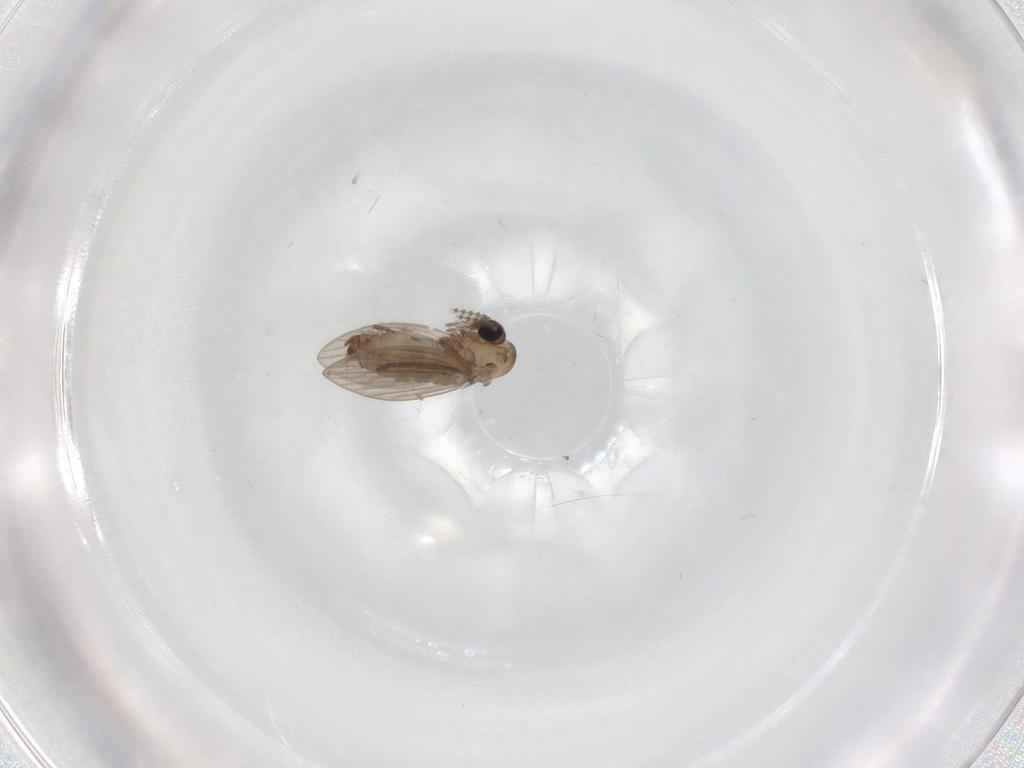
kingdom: Animalia
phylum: Arthropoda
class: Insecta
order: Diptera
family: Psychodidae
